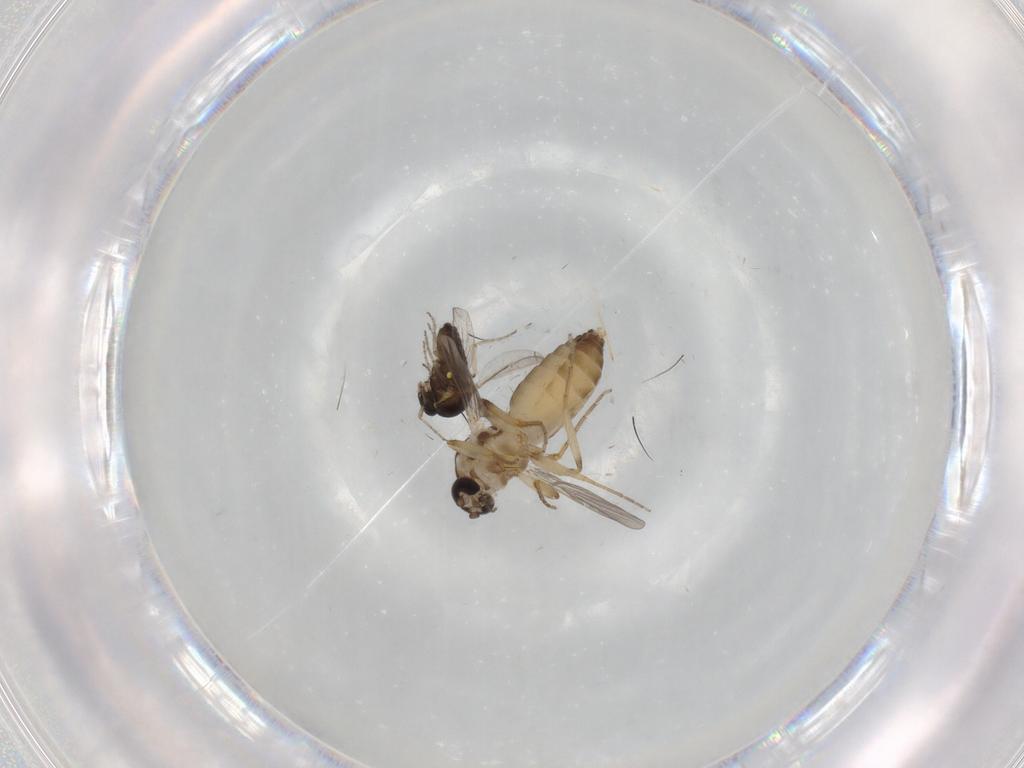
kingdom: Animalia
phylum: Arthropoda
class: Insecta
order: Diptera
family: Ceratopogonidae
